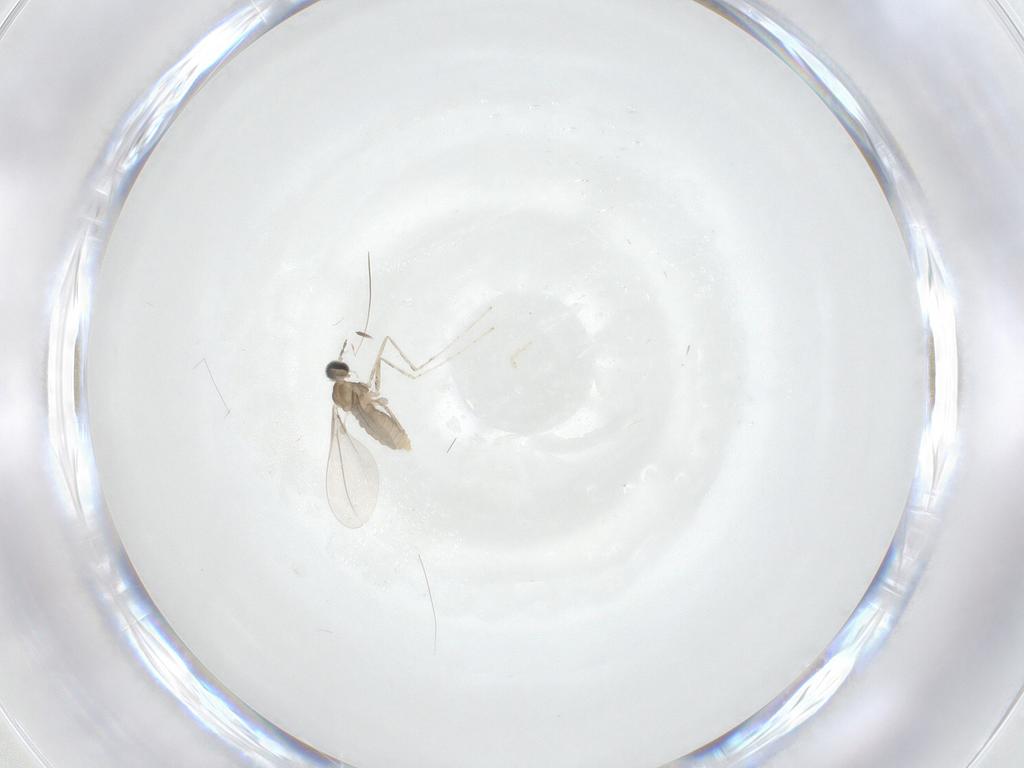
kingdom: Animalia
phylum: Arthropoda
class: Insecta
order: Diptera
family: Cecidomyiidae
